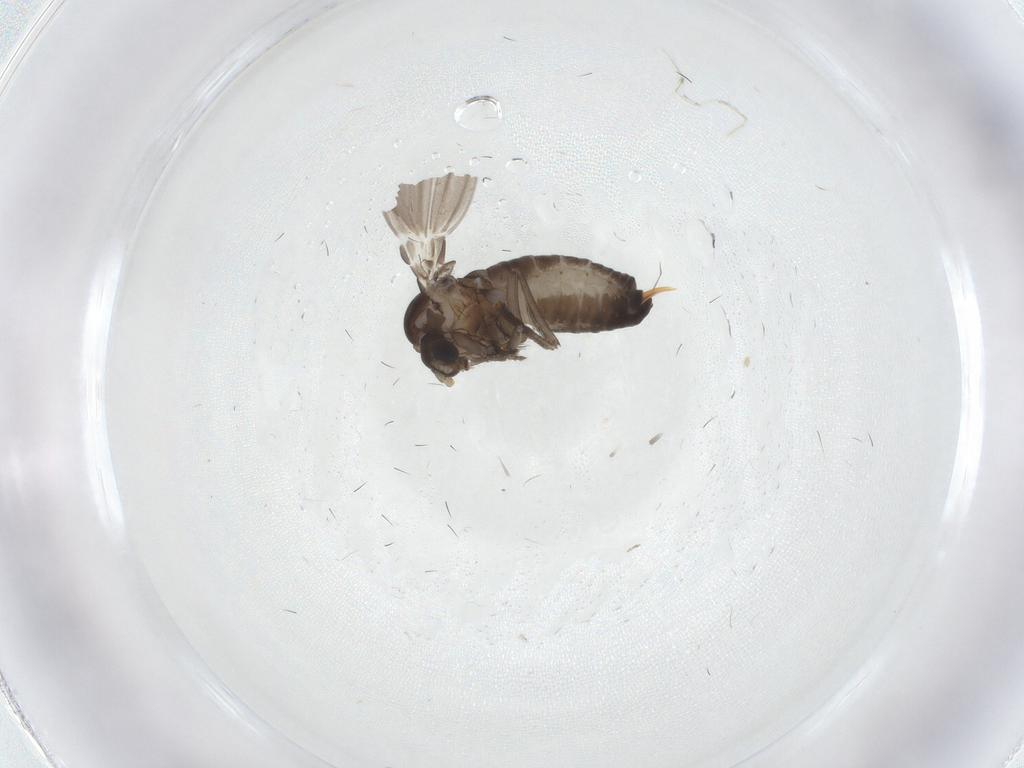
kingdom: Animalia
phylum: Arthropoda
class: Insecta
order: Diptera
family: Psychodidae
